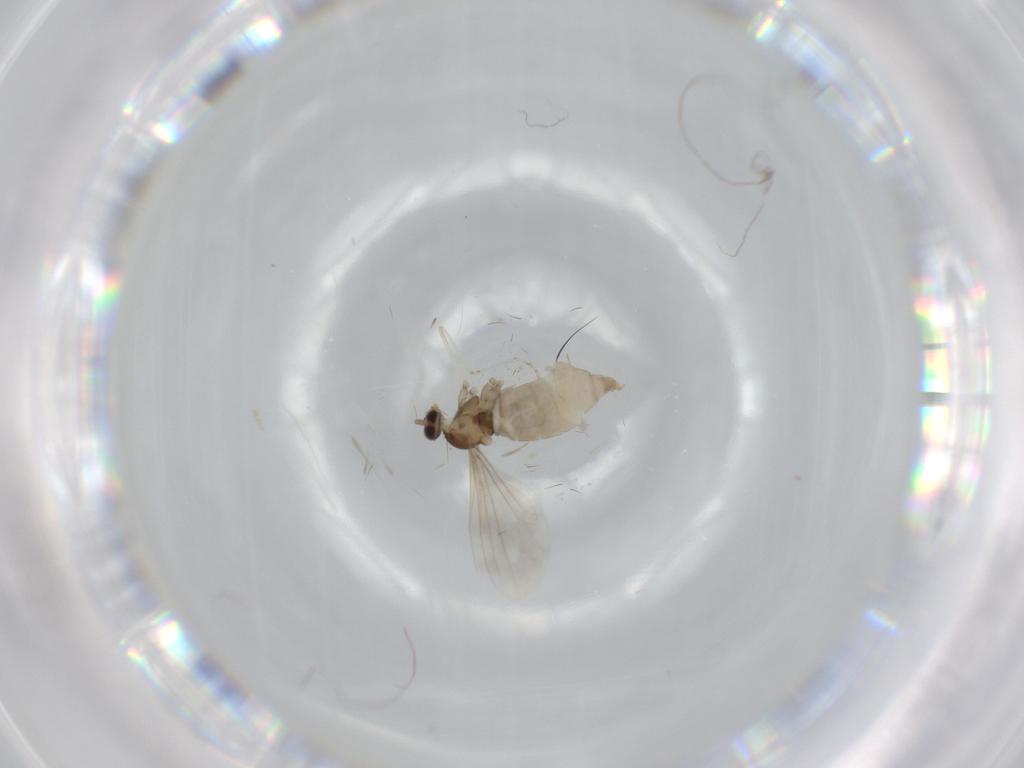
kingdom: Animalia
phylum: Arthropoda
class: Insecta
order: Diptera
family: Cecidomyiidae
